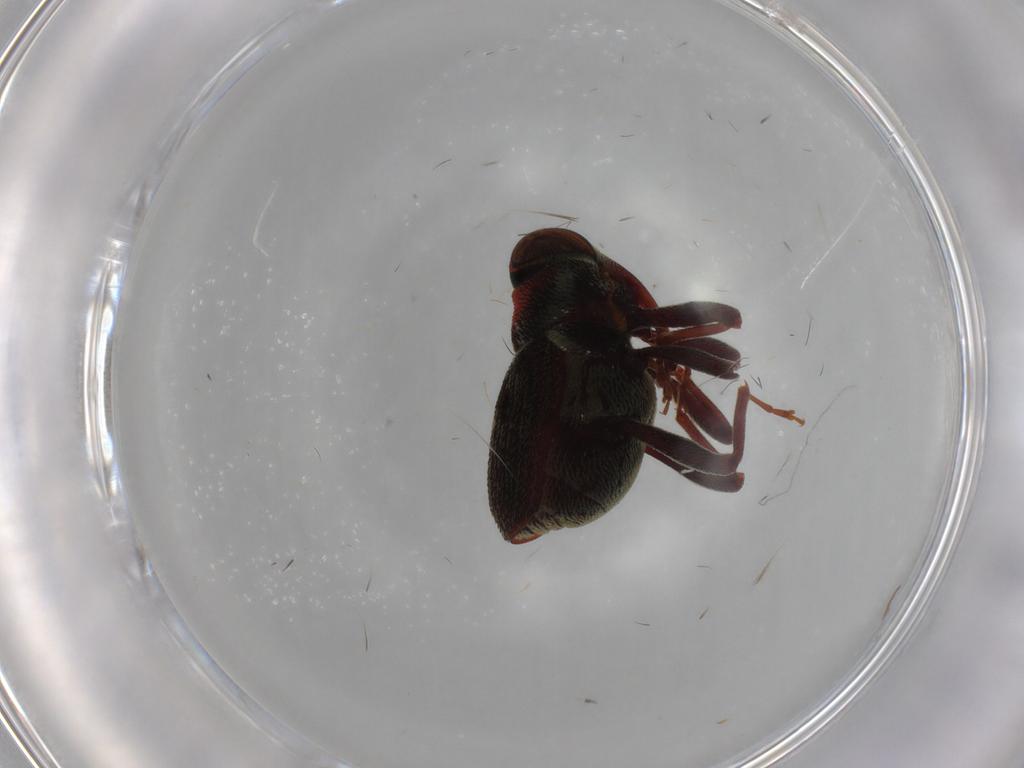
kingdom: Animalia
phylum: Arthropoda
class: Insecta
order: Coleoptera
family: Curculionidae
